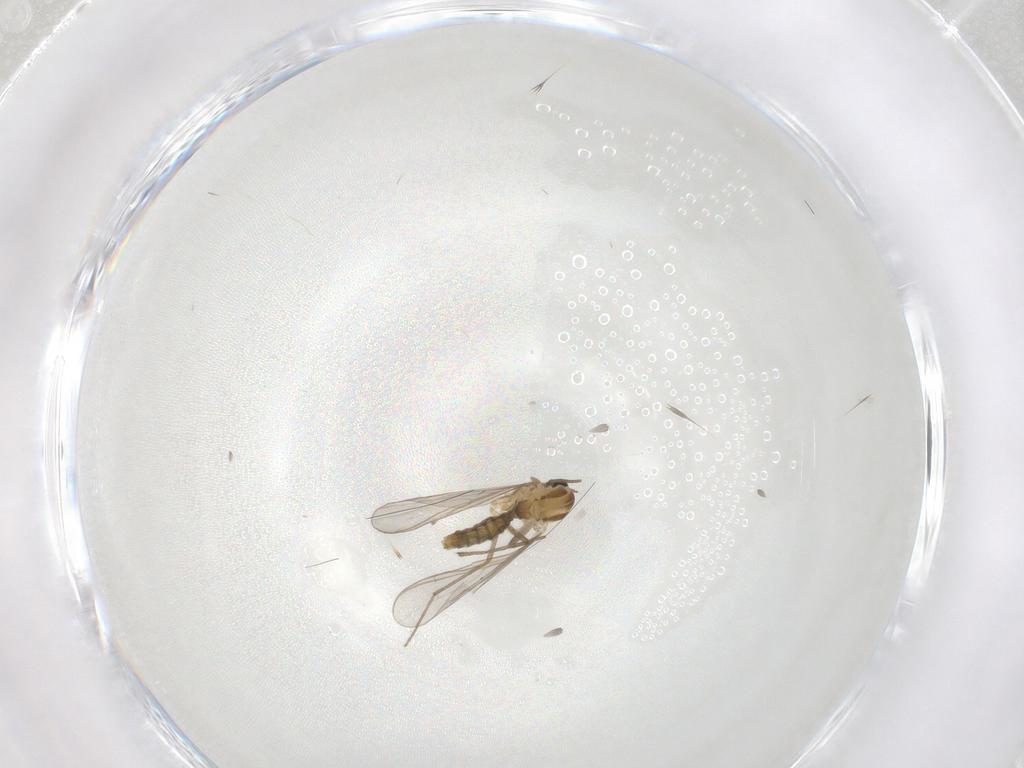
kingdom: Animalia
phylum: Arthropoda
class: Insecta
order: Diptera
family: Chironomidae
